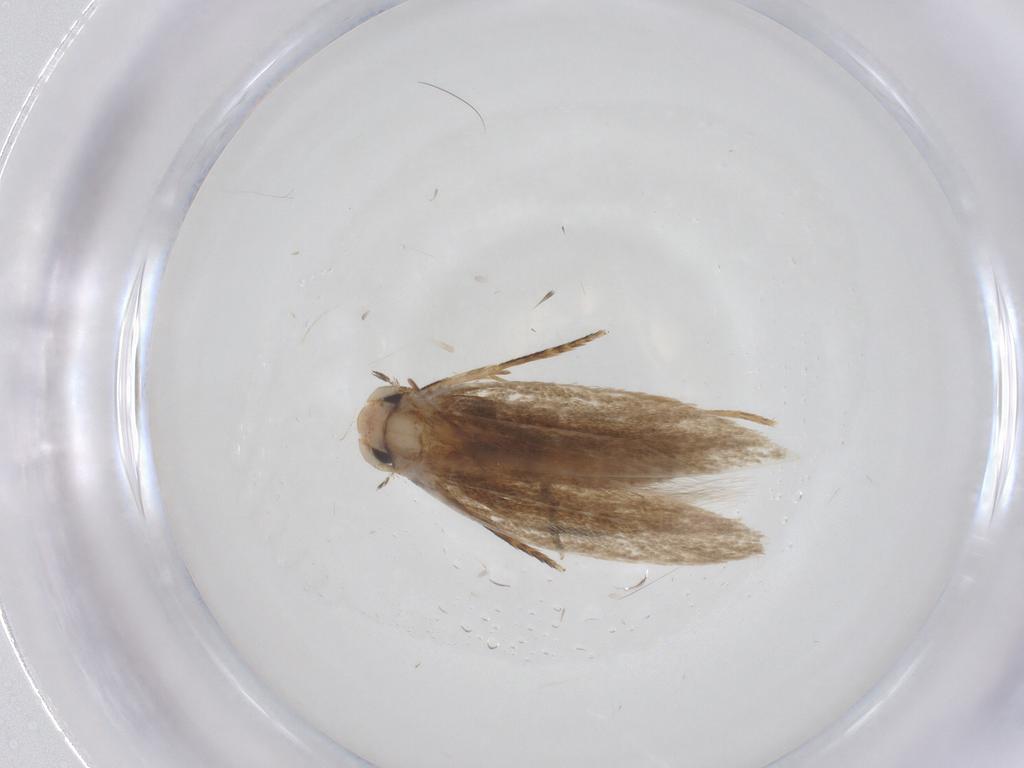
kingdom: Animalia
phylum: Arthropoda
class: Insecta
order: Lepidoptera
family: Tineidae
